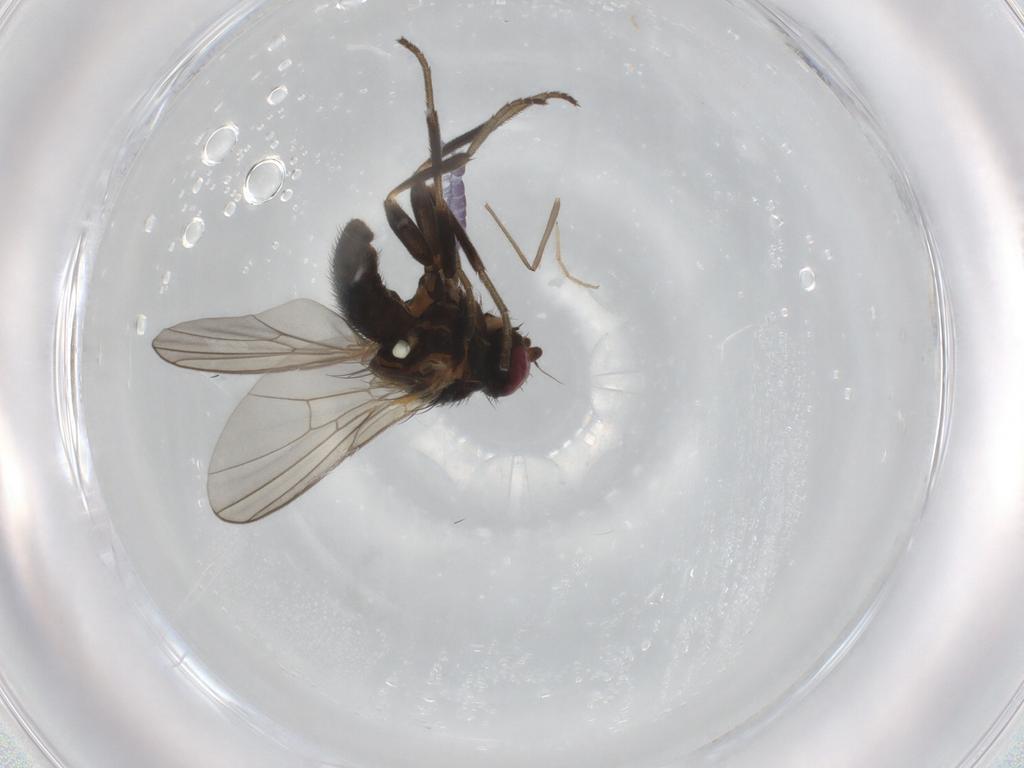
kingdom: Animalia
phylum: Arthropoda
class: Insecta
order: Diptera
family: Agromyzidae
